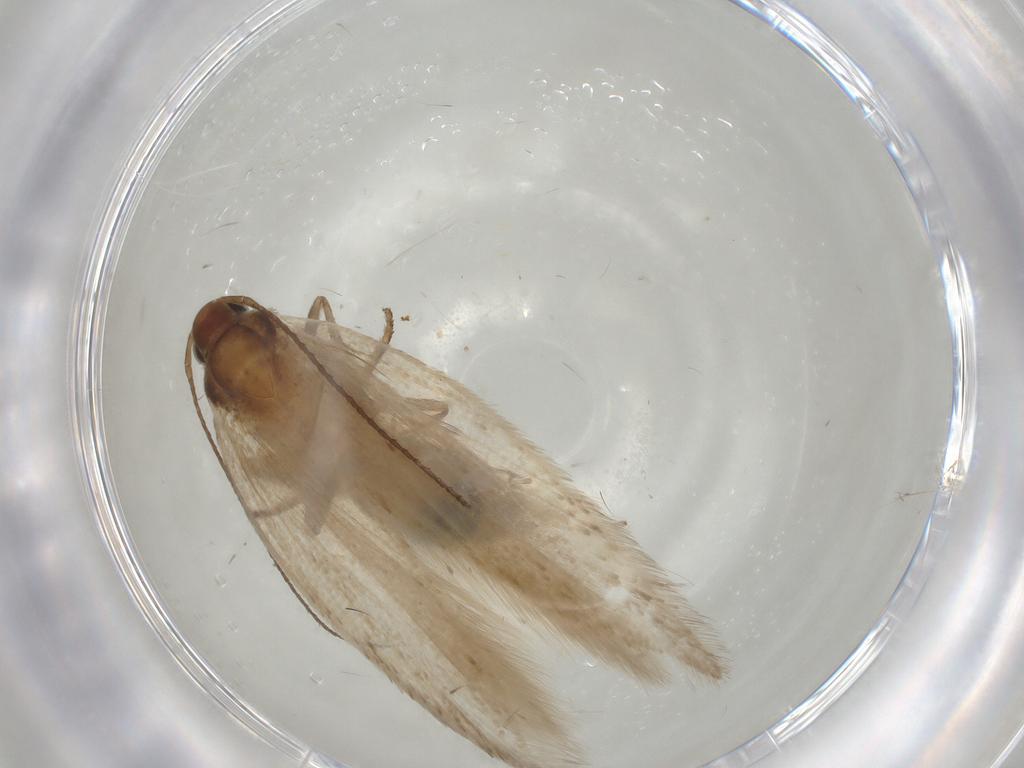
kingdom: Animalia
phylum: Arthropoda
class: Insecta
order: Lepidoptera
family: Gelechiidae
